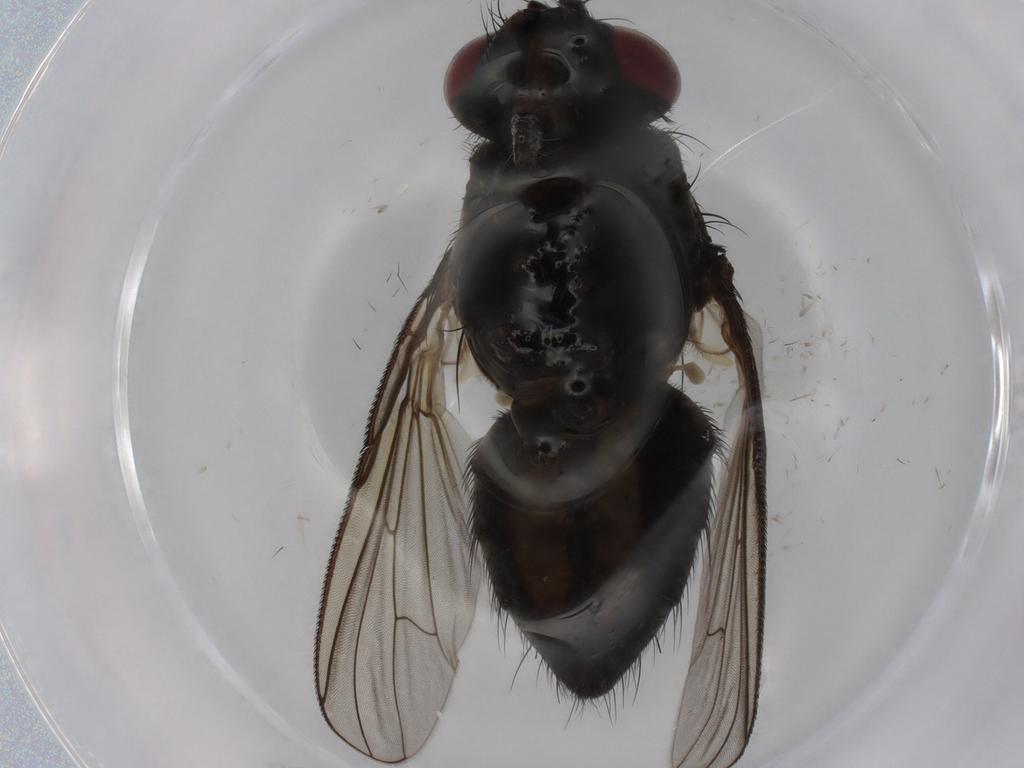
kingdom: Animalia
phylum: Arthropoda
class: Insecta
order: Diptera
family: Muscidae
